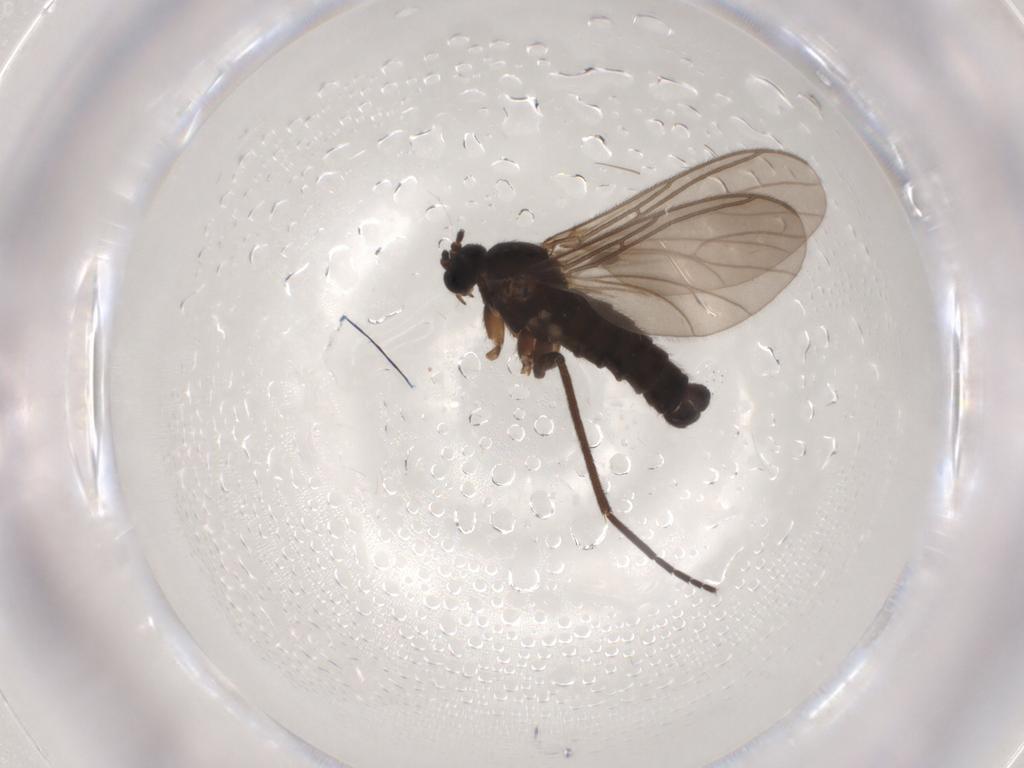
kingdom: Animalia
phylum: Arthropoda
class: Insecta
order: Diptera
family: Sciaridae
